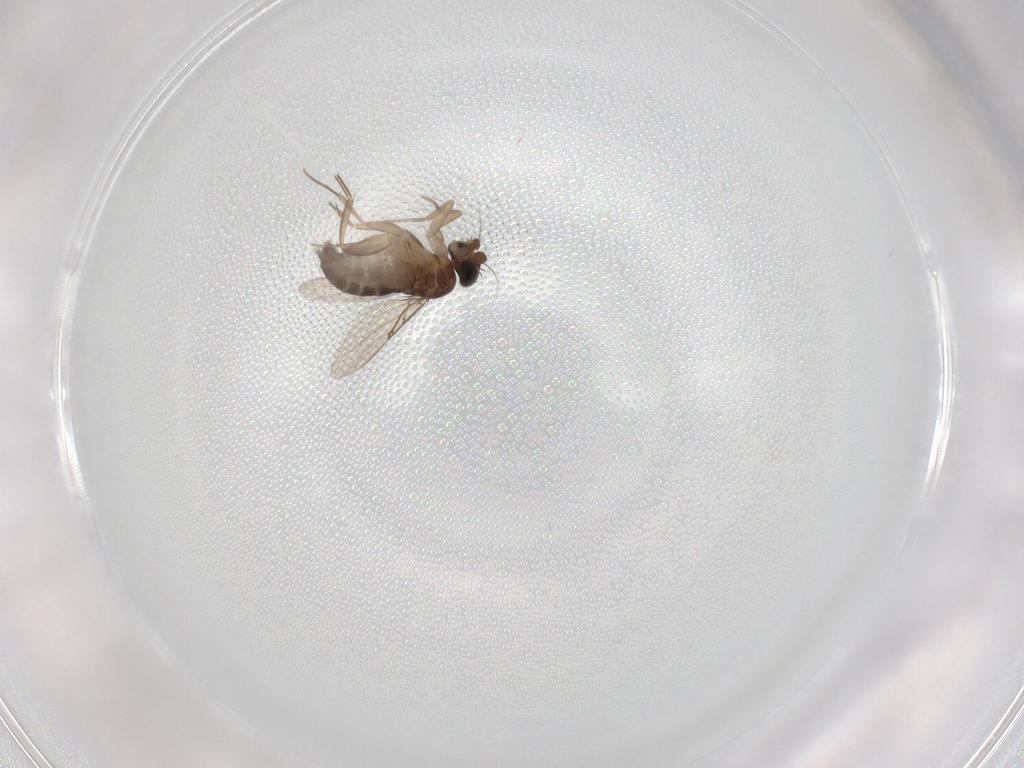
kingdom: Animalia
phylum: Arthropoda
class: Insecta
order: Diptera
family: Phoridae
